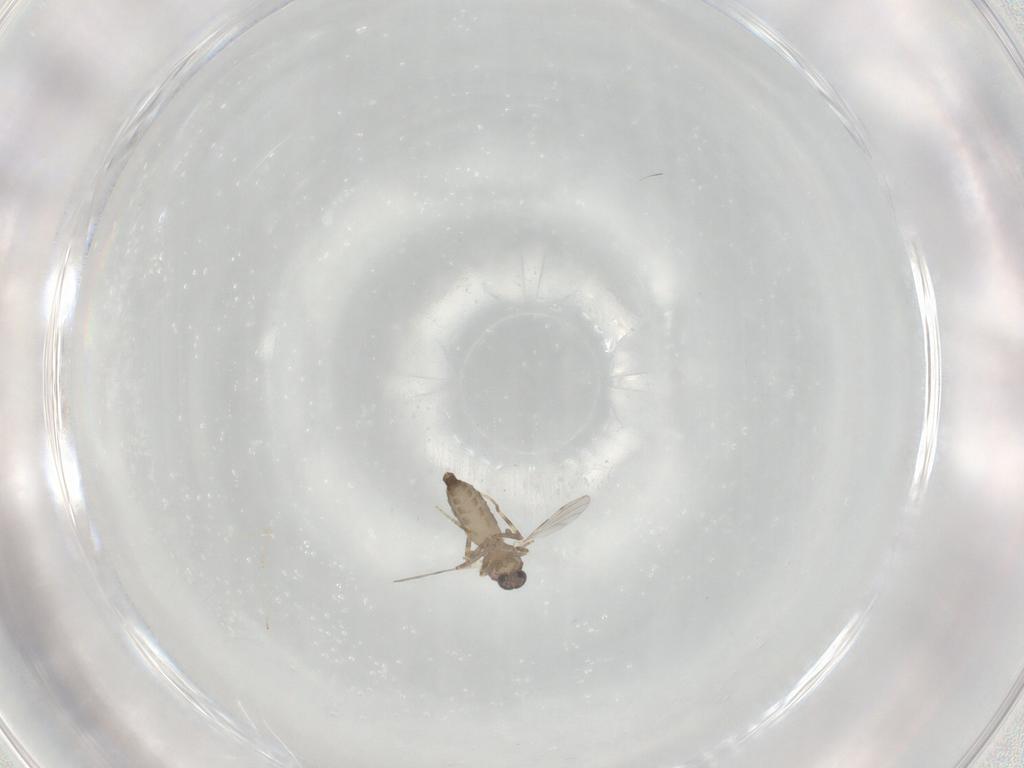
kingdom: Animalia
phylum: Arthropoda
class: Insecta
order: Diptera
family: Ceratopogonidae
